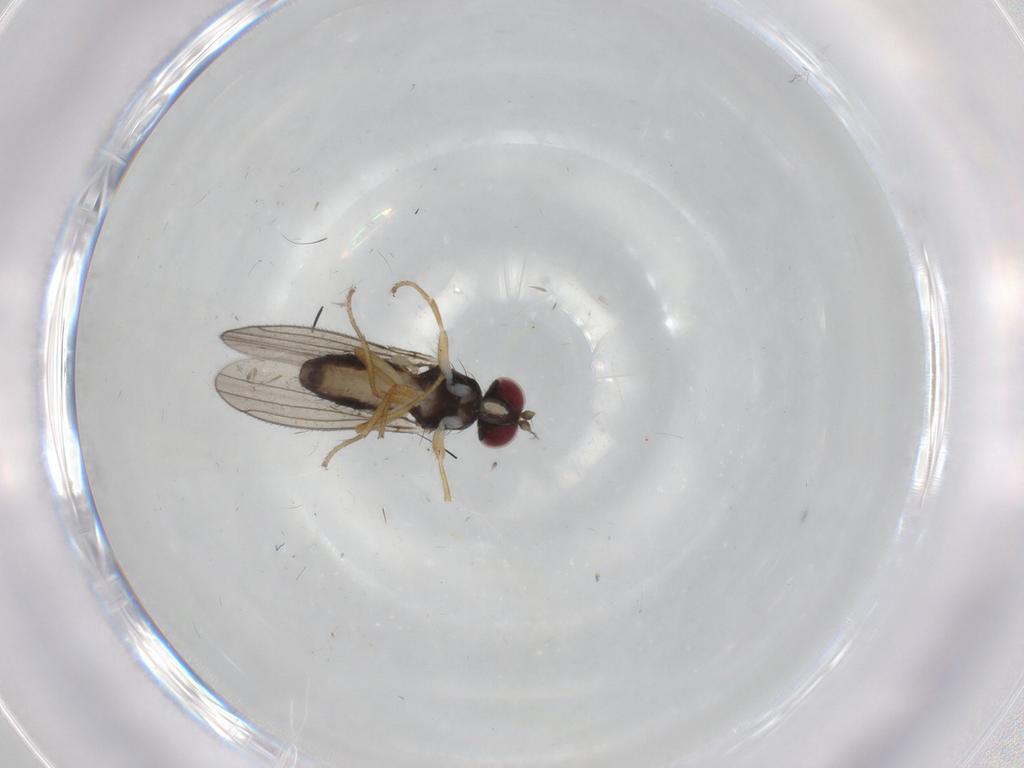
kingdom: Animalia
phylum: Arthropoda
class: Insecta
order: Diptera
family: Anthomyzidae
